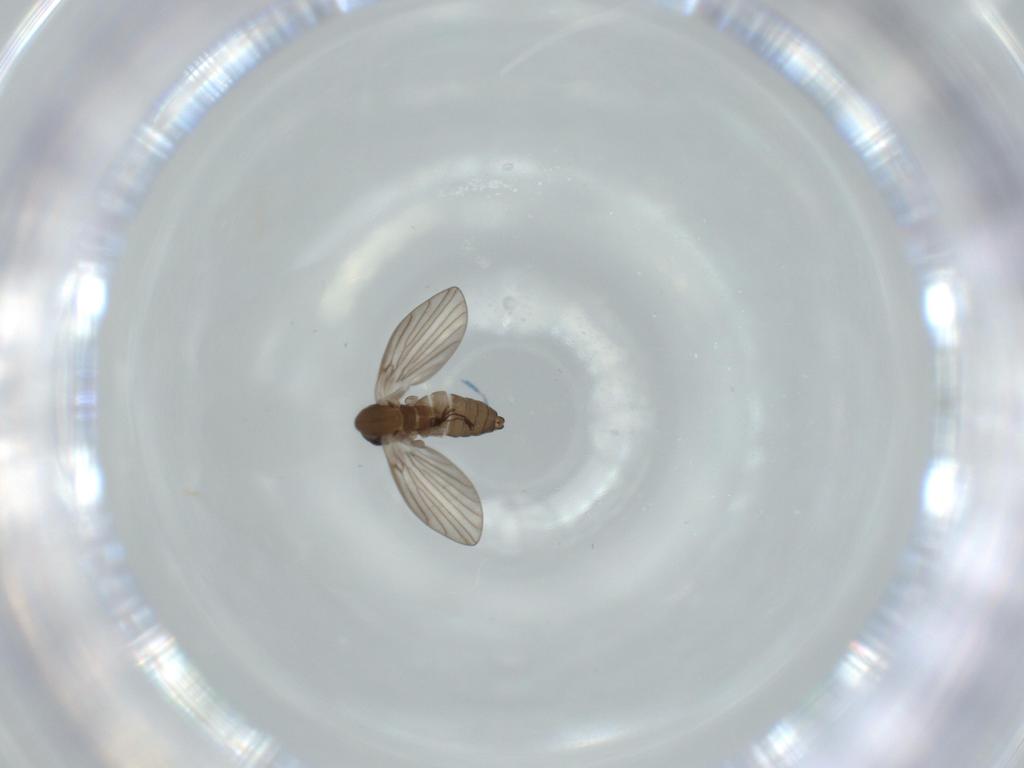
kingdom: Animalia
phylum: Arthropoda
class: Insecta
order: Diptera
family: Psychodidae
